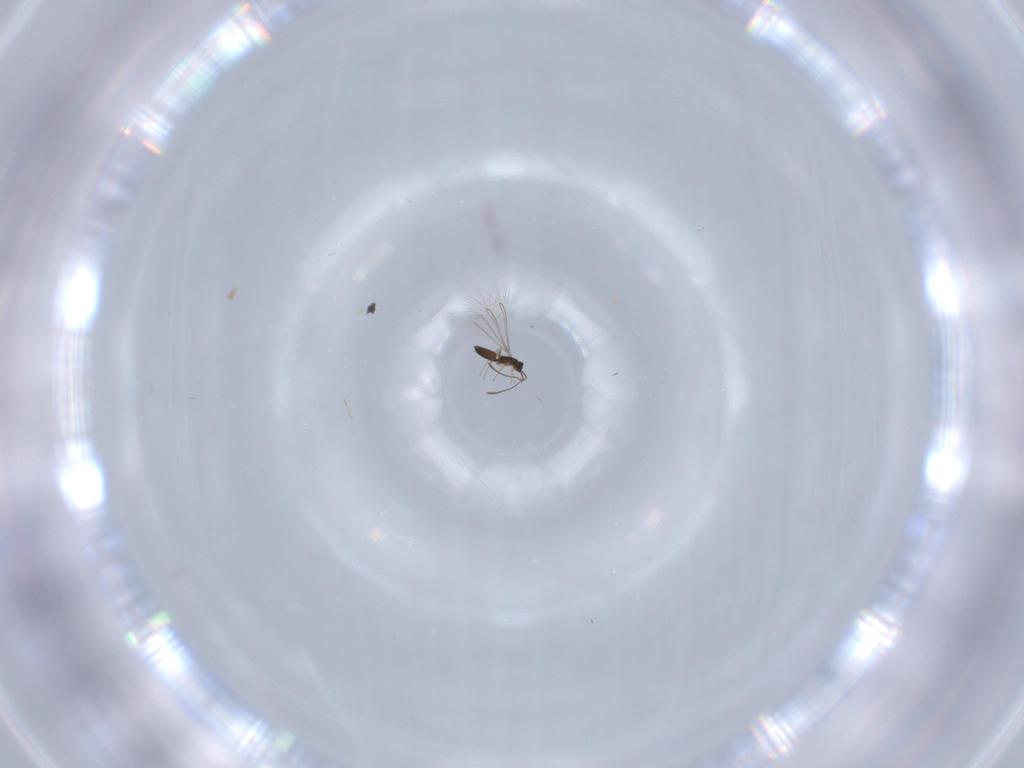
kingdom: Animalia
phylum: Arthropoda
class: Insecta
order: Hymenoptera
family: Mymaridae
